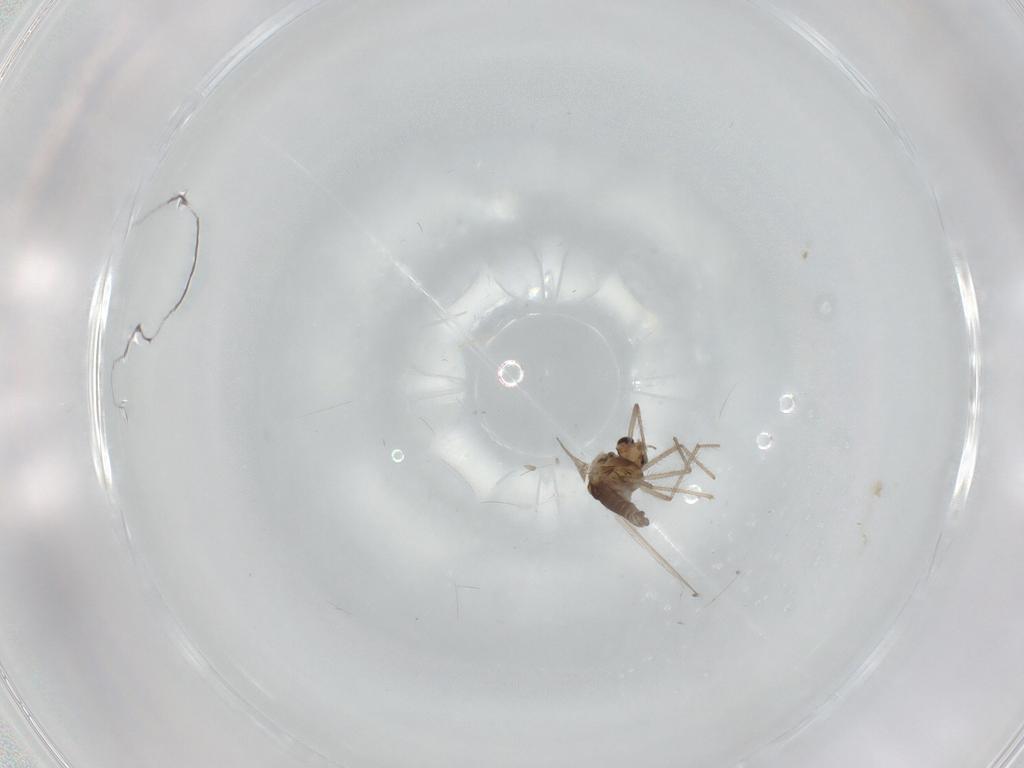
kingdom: Animalia
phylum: Arthropoda
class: Insecta
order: Diptera
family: Chironomidae
